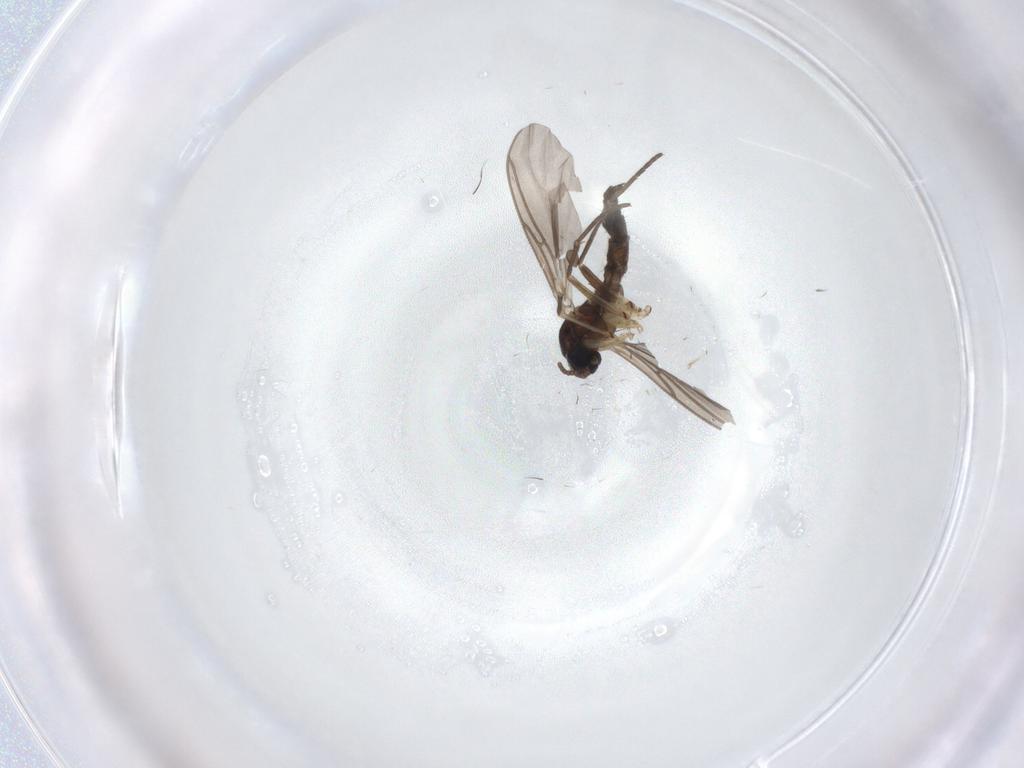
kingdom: Animalia
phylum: Arthropoda
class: Insecta
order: Diptera
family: Sciaridae
